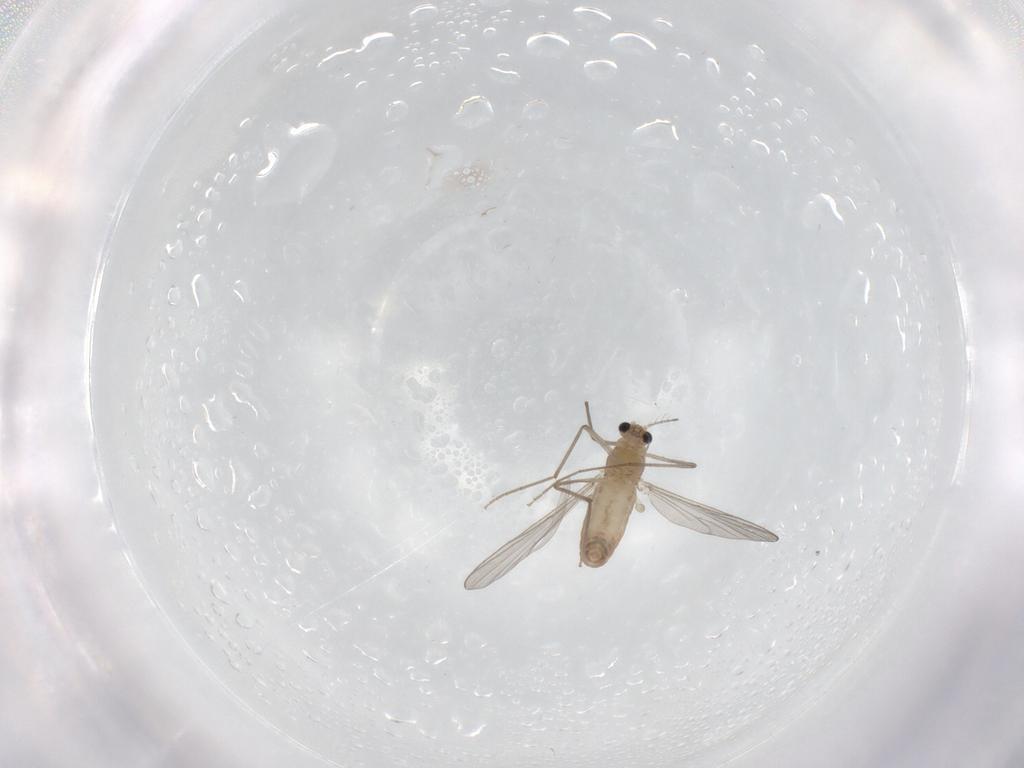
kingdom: Animalia
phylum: Arthropoda
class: Insecta
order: Diptera
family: Sciaridae
